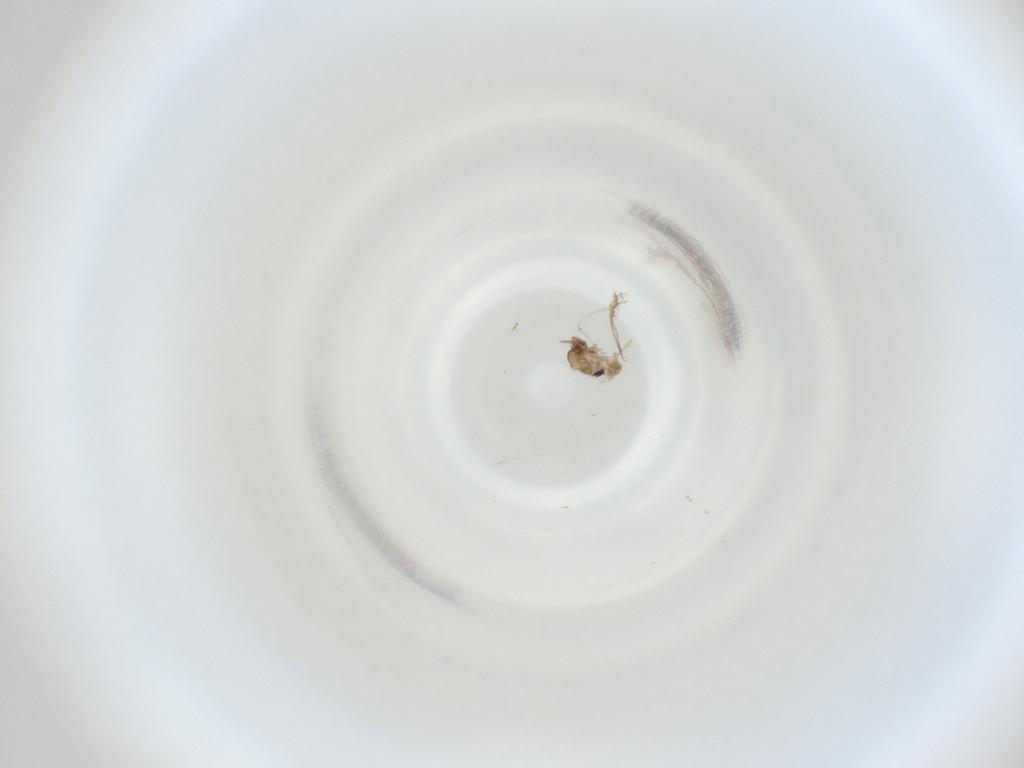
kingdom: Animalia
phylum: Arthropoda
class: Insecta
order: Diptera
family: Cecidomyiidae
